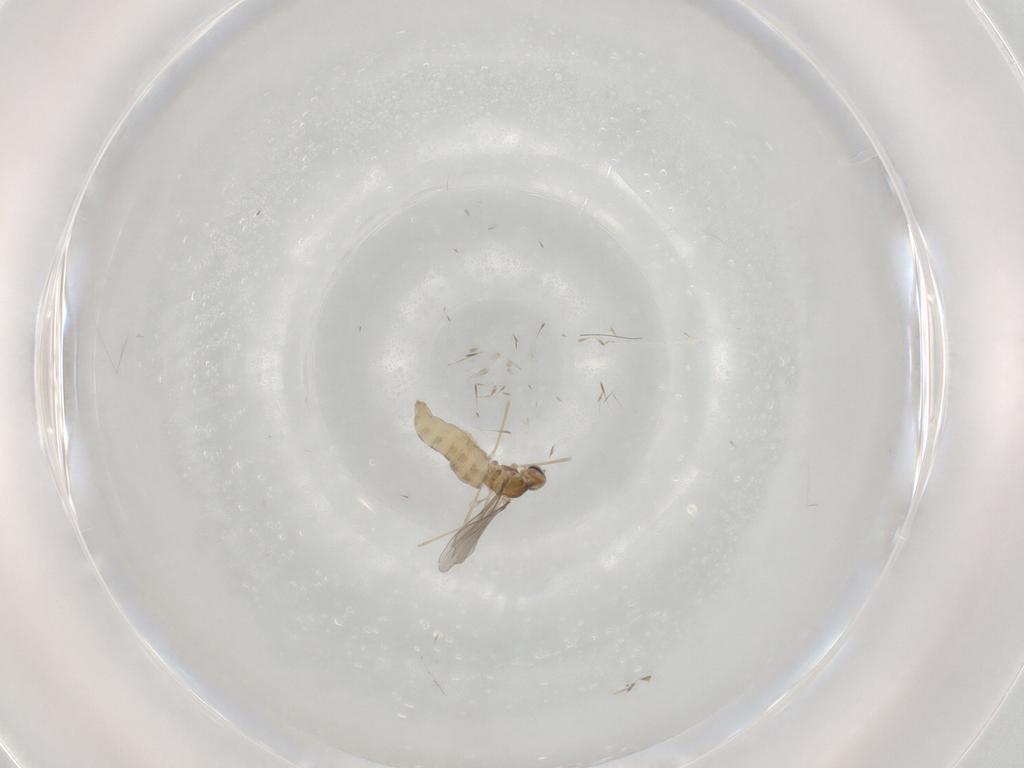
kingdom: Animalia
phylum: Arthropoda
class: Insecta
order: Diptera
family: Cecidomyiidae
